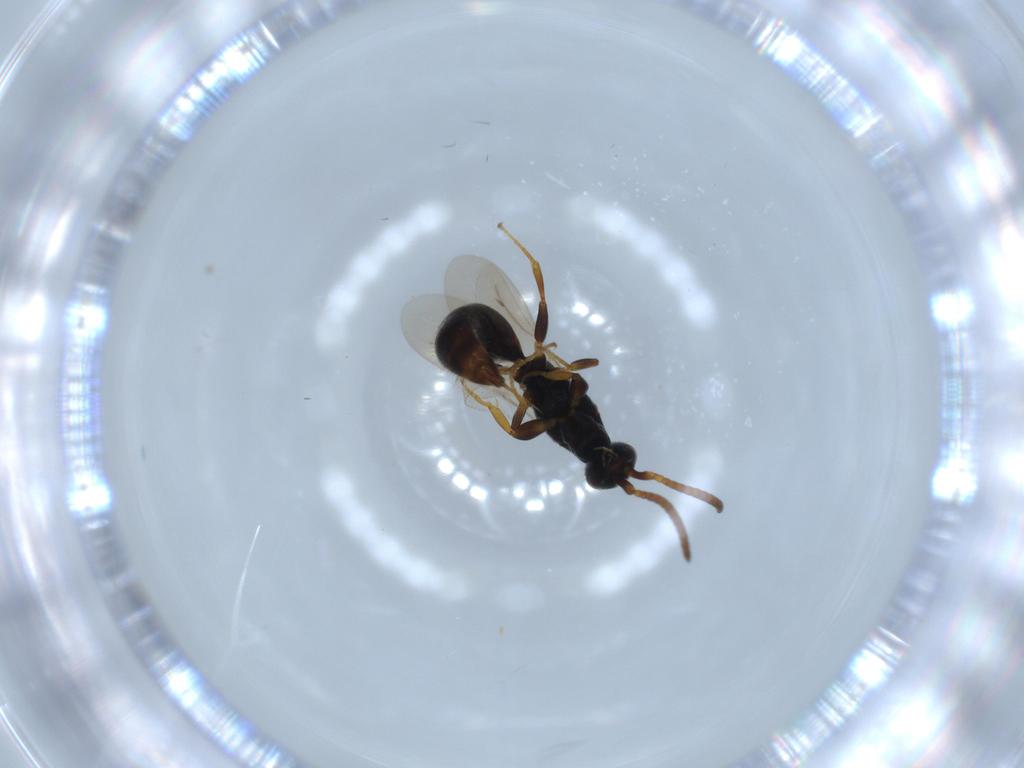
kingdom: Animalia
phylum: Arthropoda
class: Insecta
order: Hymenoptera
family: Bethylidae
